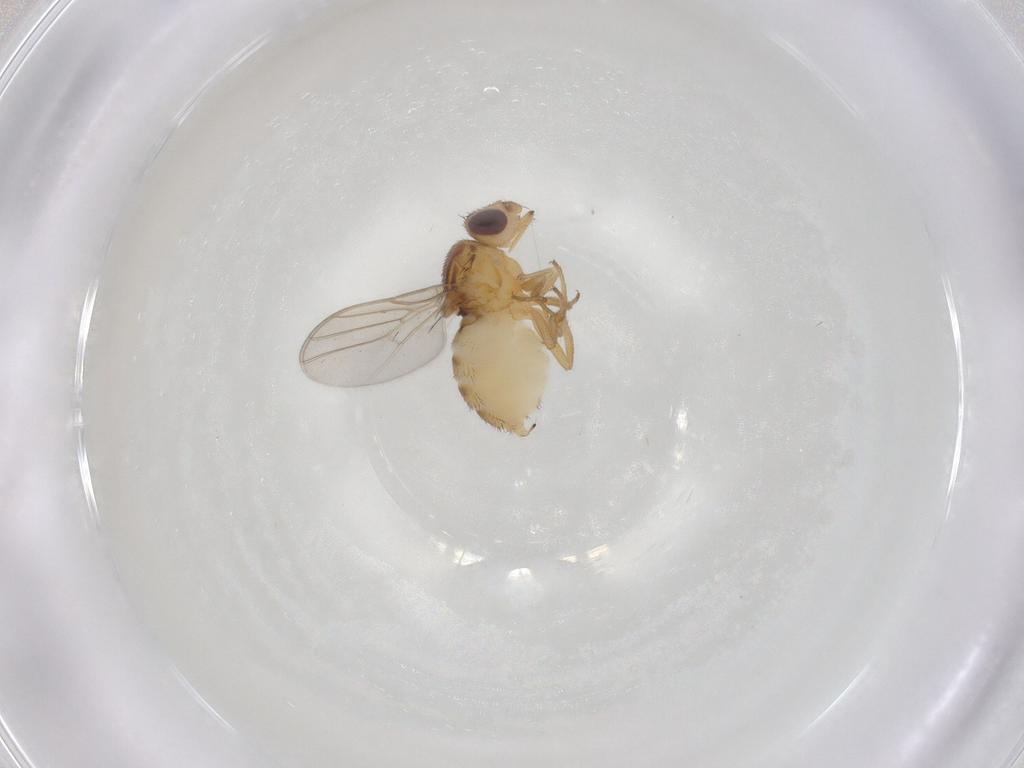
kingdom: Animalia
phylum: Arthropoda
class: Insecta
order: Diptera
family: Chloropidae
